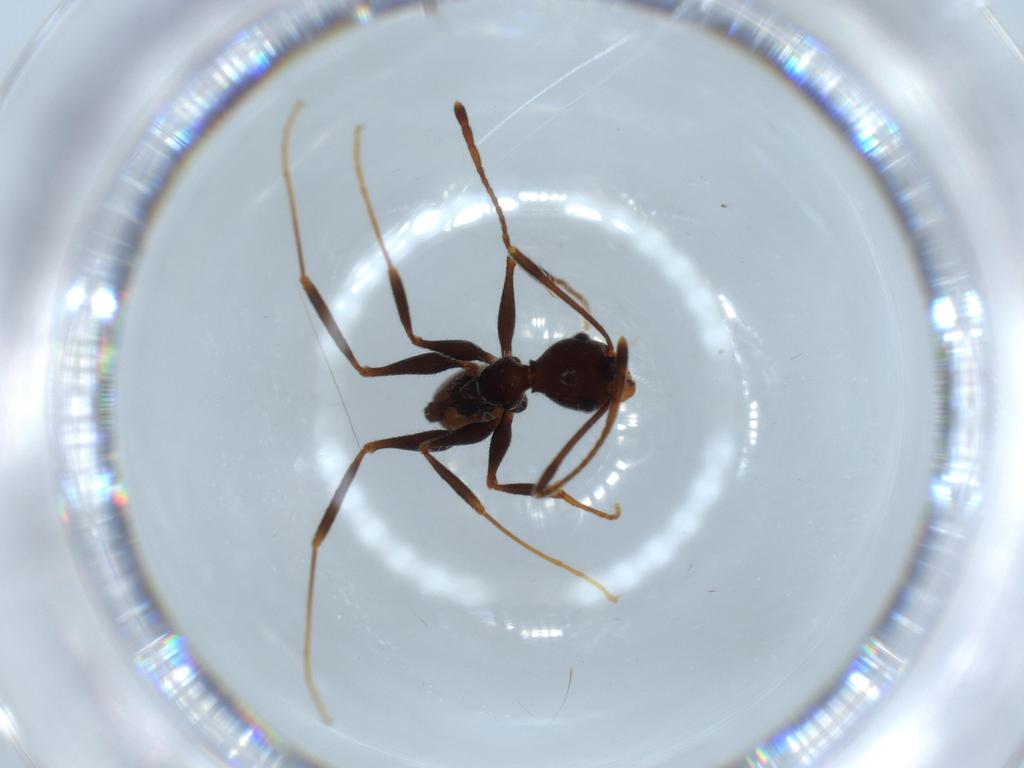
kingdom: Animalia
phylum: Arthropoda
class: Insecta
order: Hymenoptera
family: Formicidae
